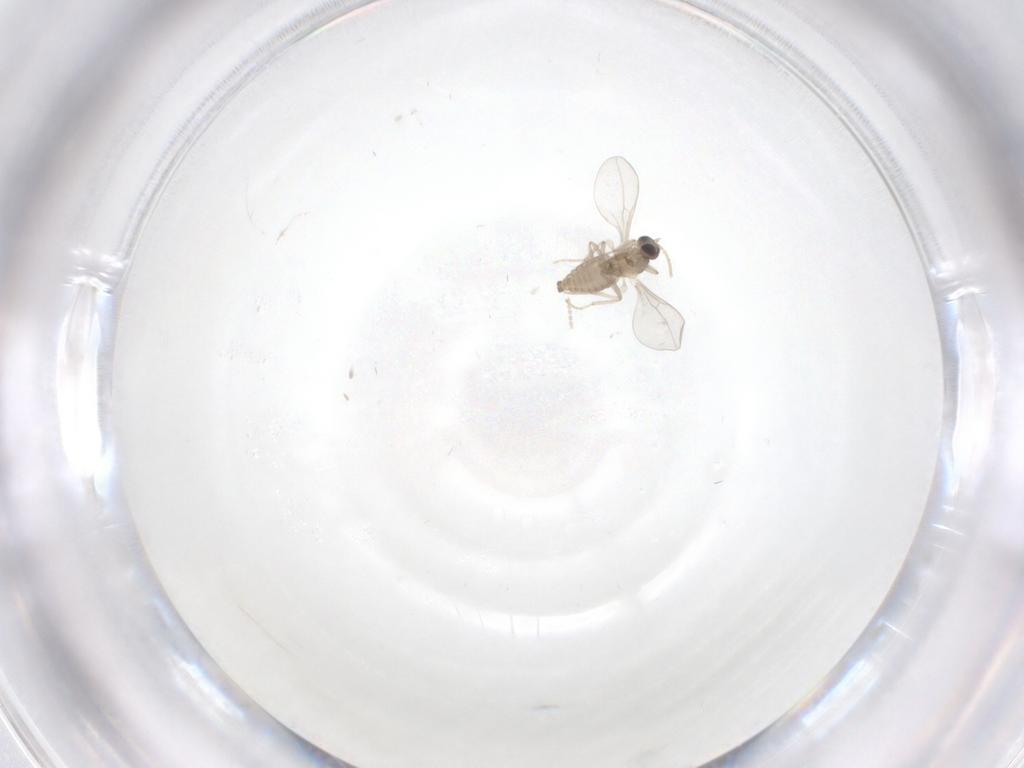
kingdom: Animalia
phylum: Arthropoda
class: Insecta
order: Diptera
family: Cecidomyiidae
